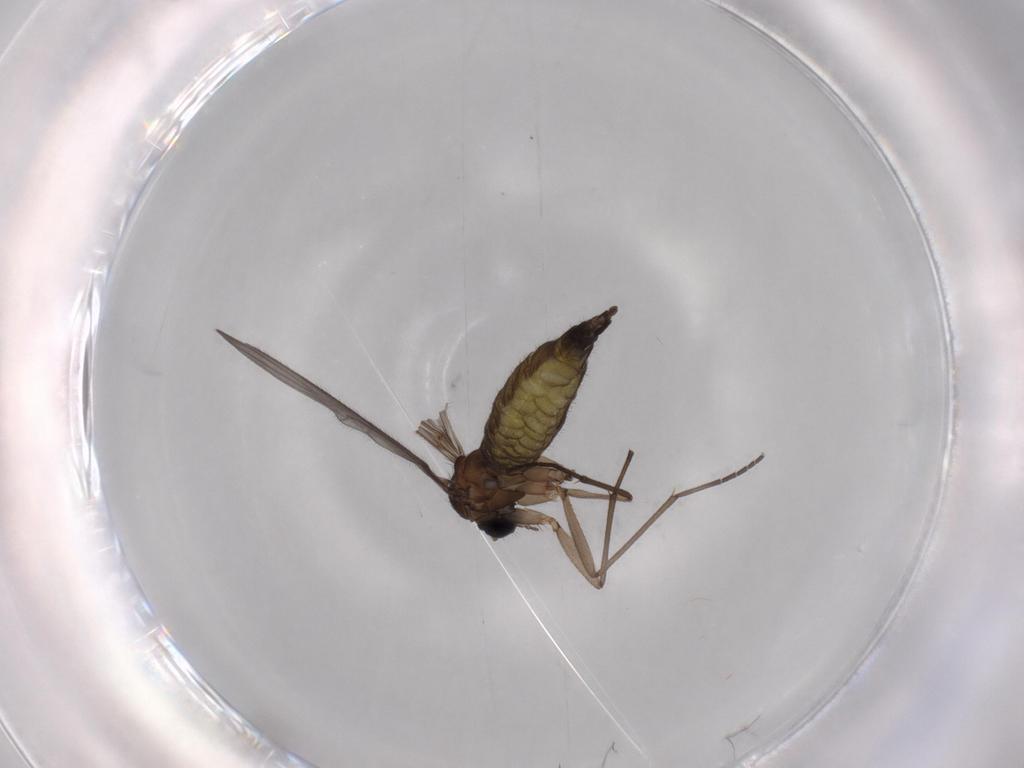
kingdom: Animalia
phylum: Arthropoda
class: Insecta
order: Diptera
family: Sciaridae
